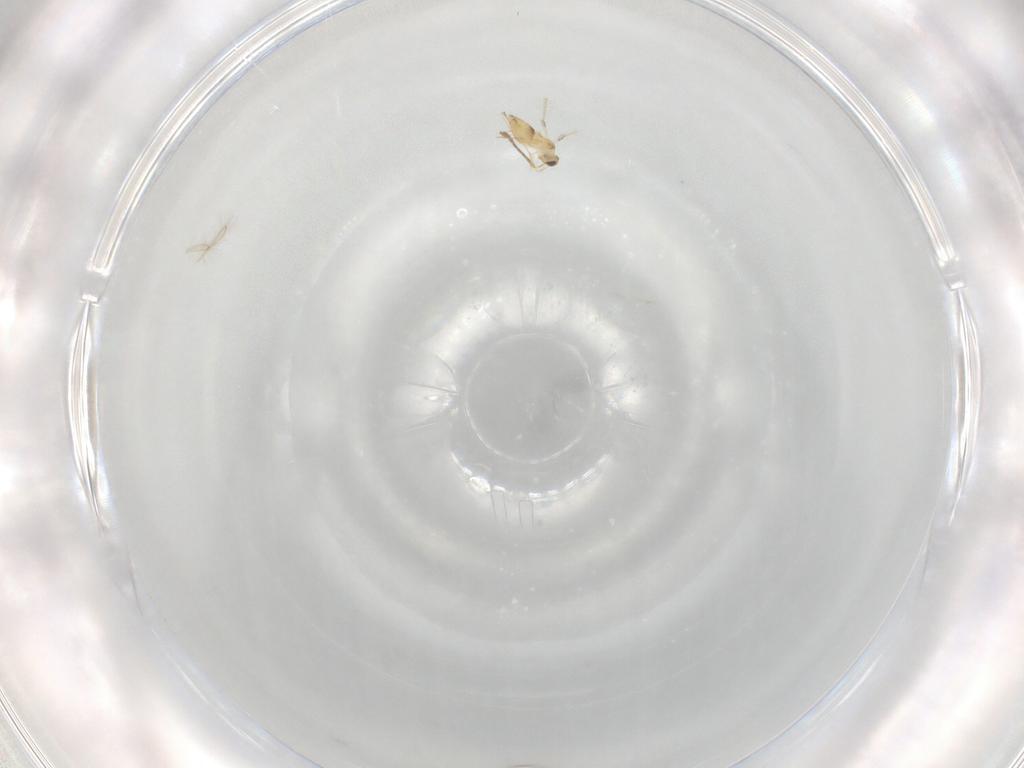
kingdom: Animalia
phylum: Arthropoda
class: Insecta
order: Hymenoptera
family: Mymaridae
